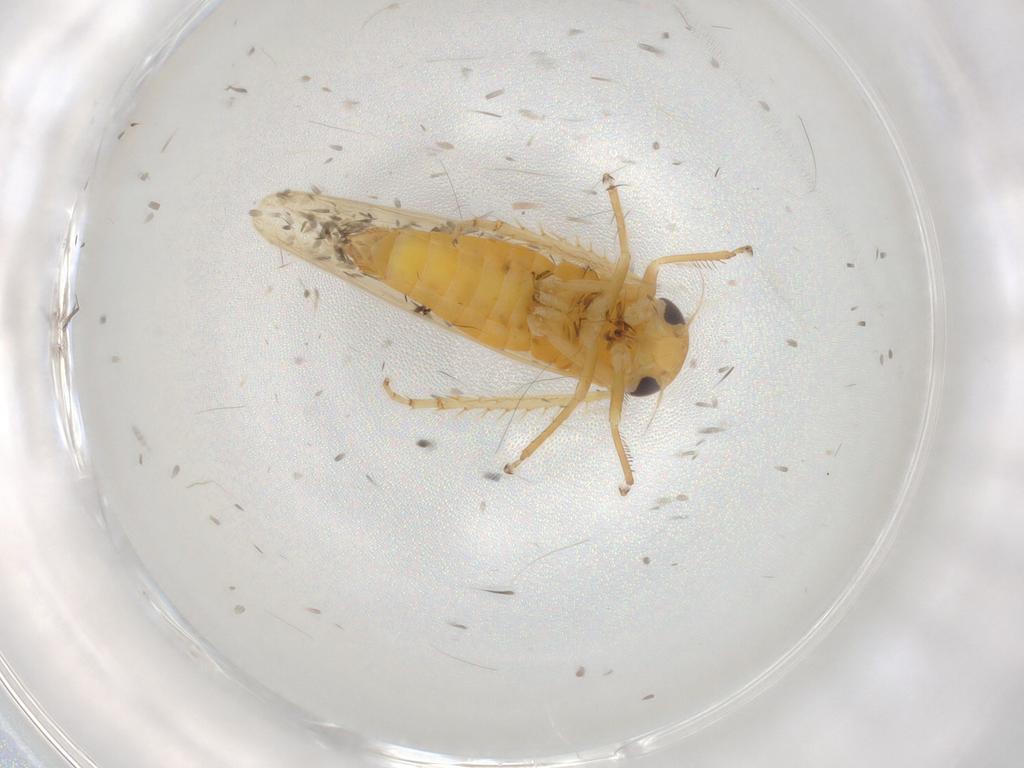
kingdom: Animalia
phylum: Arthropoda
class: Insecta
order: Hemiptera
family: Cicadellidae
